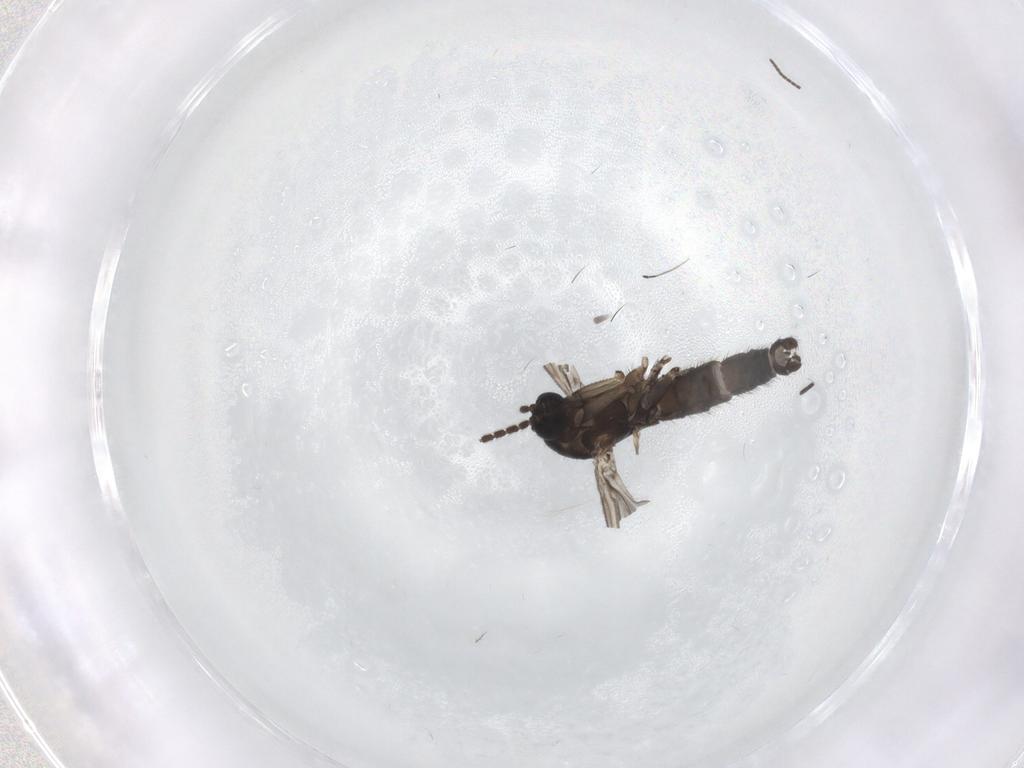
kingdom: Animalia
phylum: Arthropoda
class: Insecta
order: Diptera
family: Sciaridae
